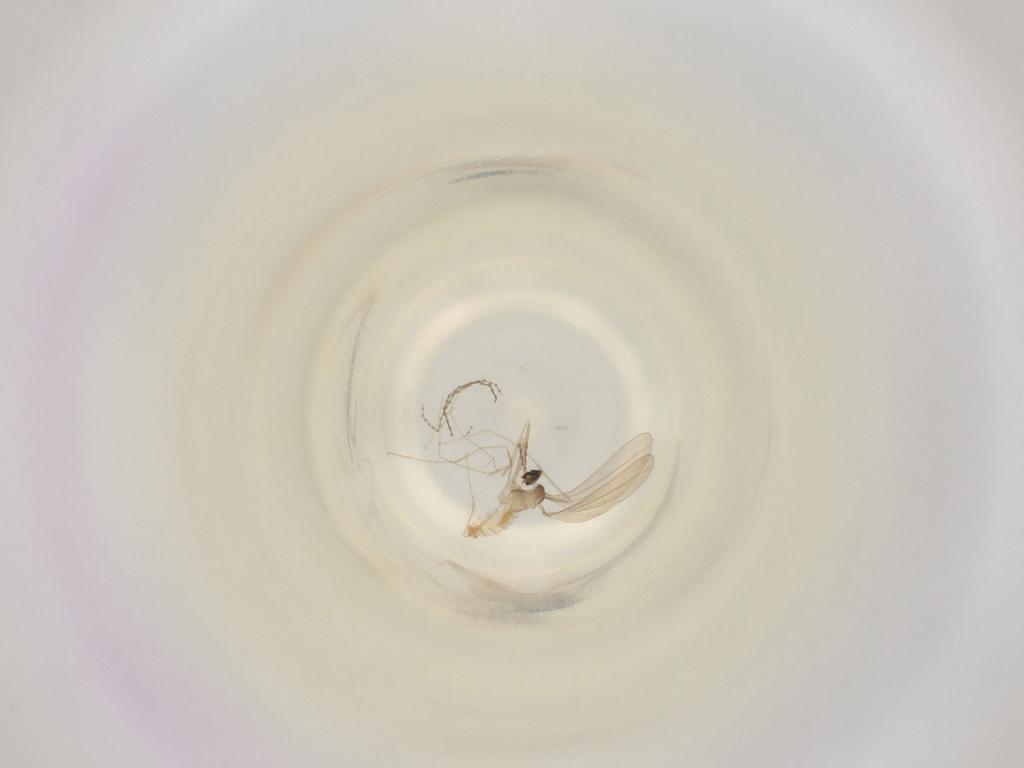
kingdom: Animalia
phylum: Arthropoda
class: Insecta
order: Diptera
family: Cecidomyiidae
